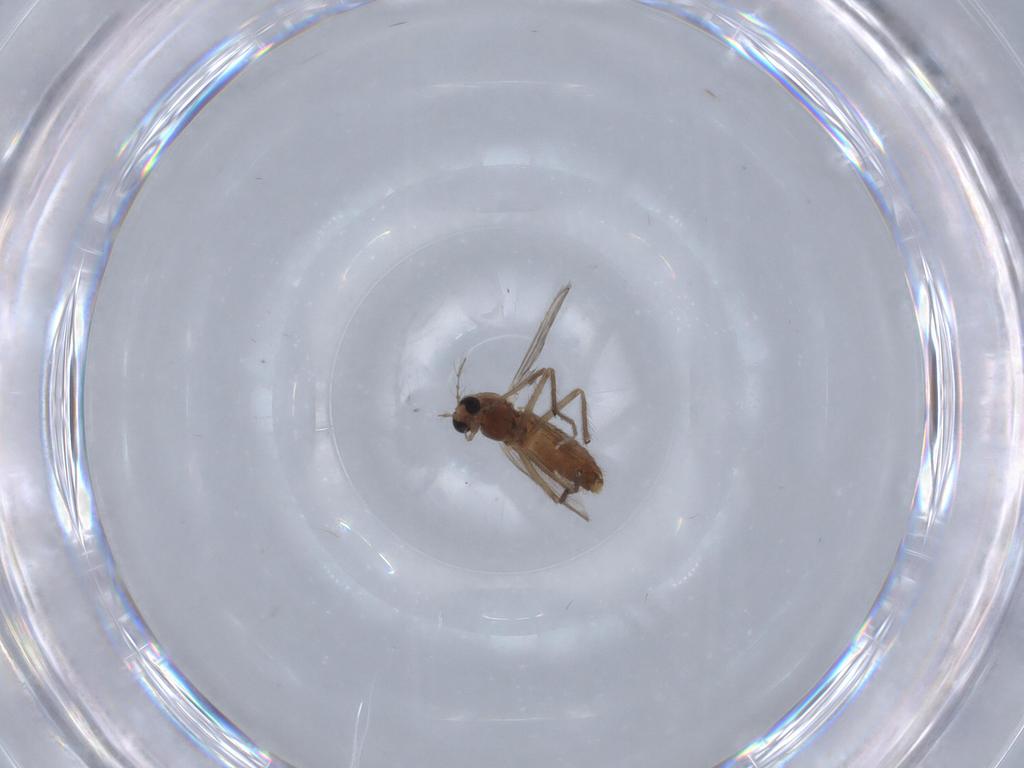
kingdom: Animalia
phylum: Arthropoda
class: Insecta
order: Diptera
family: Chironomidae
